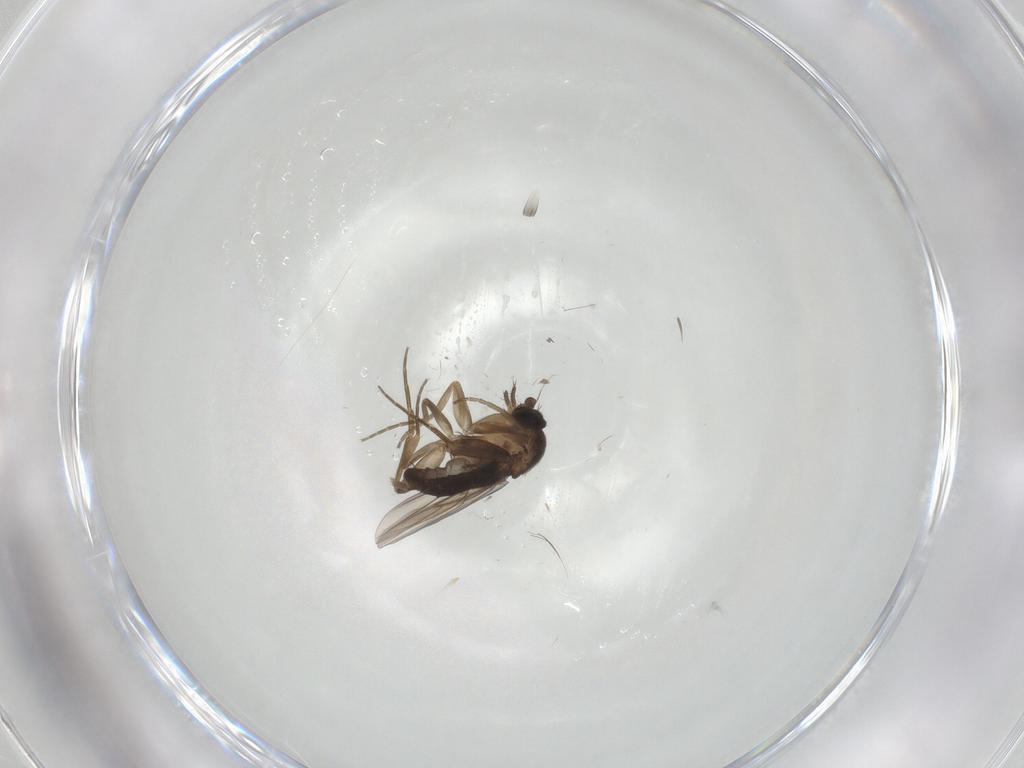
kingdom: Animalia
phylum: Arthropoda
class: Insecta
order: Diptera
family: Phoridae
